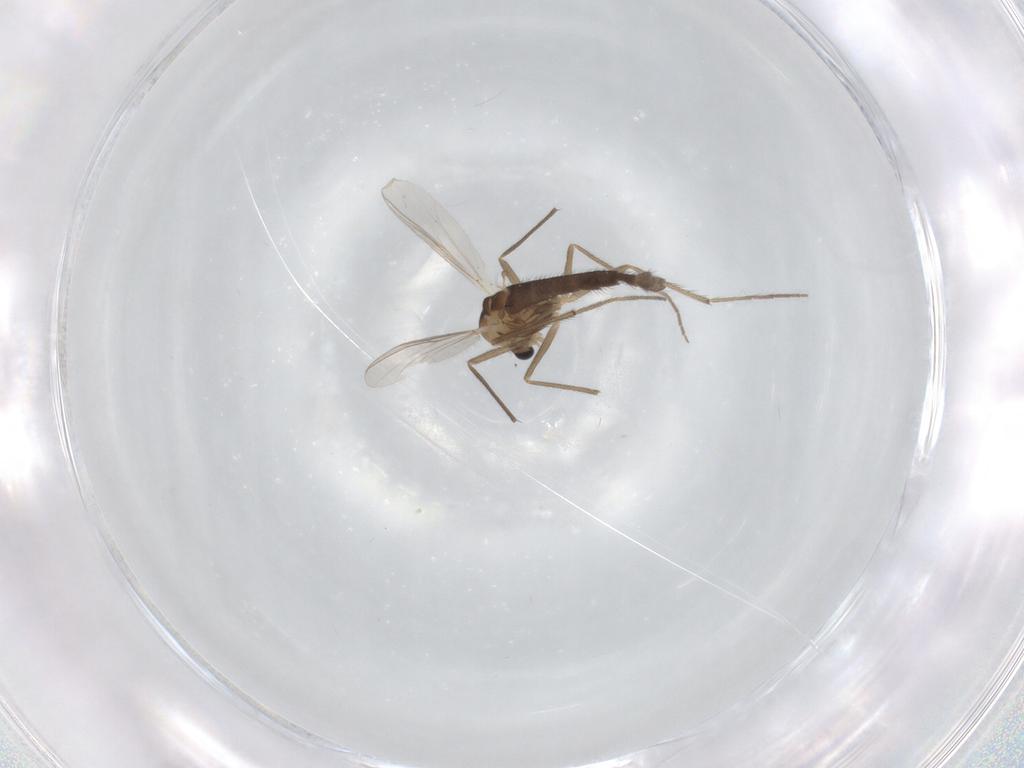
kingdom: Animalia
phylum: Arthropoda
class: Insecta
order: Diptera
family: Chironomidae
